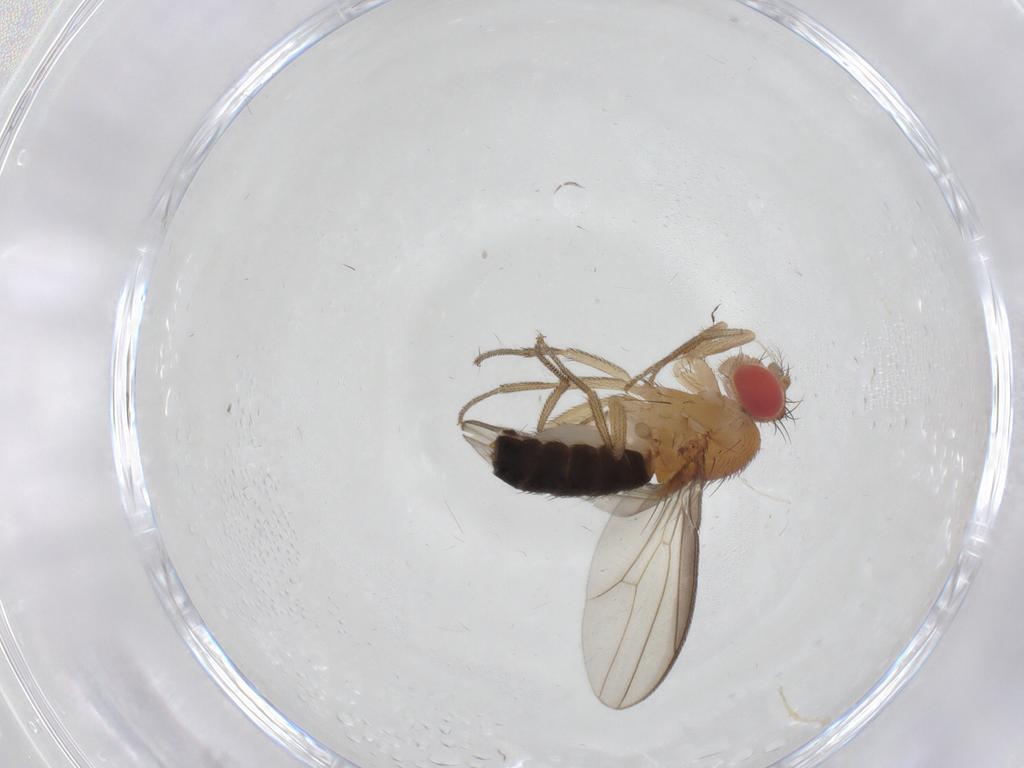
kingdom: Animalia
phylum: Arthropoda
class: Insecta
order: Diptera
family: Drosophilidae
